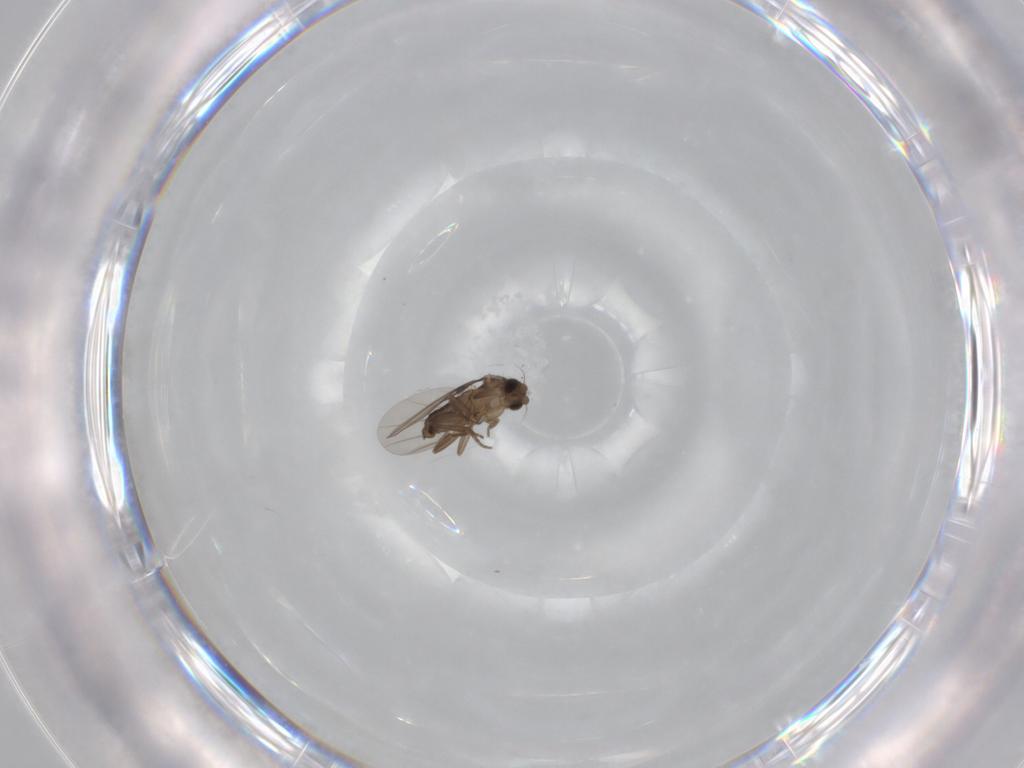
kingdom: Animalia
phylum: Arthropoda
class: Insecta
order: Diptera
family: Phoridae
